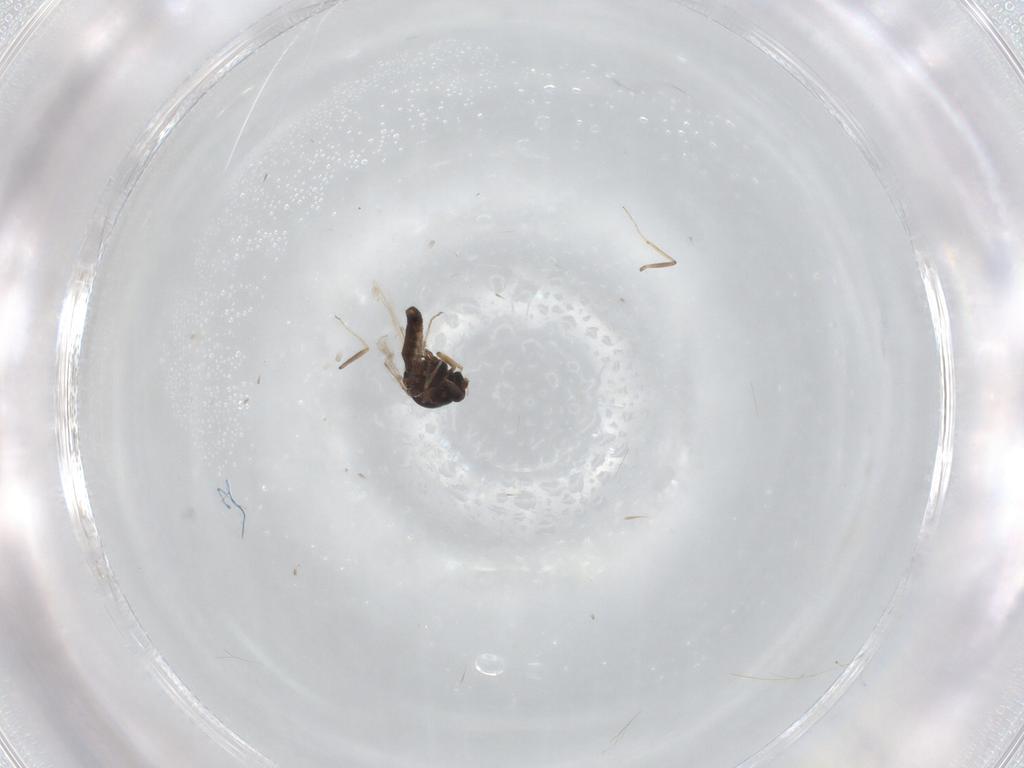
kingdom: Animalia
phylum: Arthropoda
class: Insecta
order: Diptera
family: Ceratopogonidae
